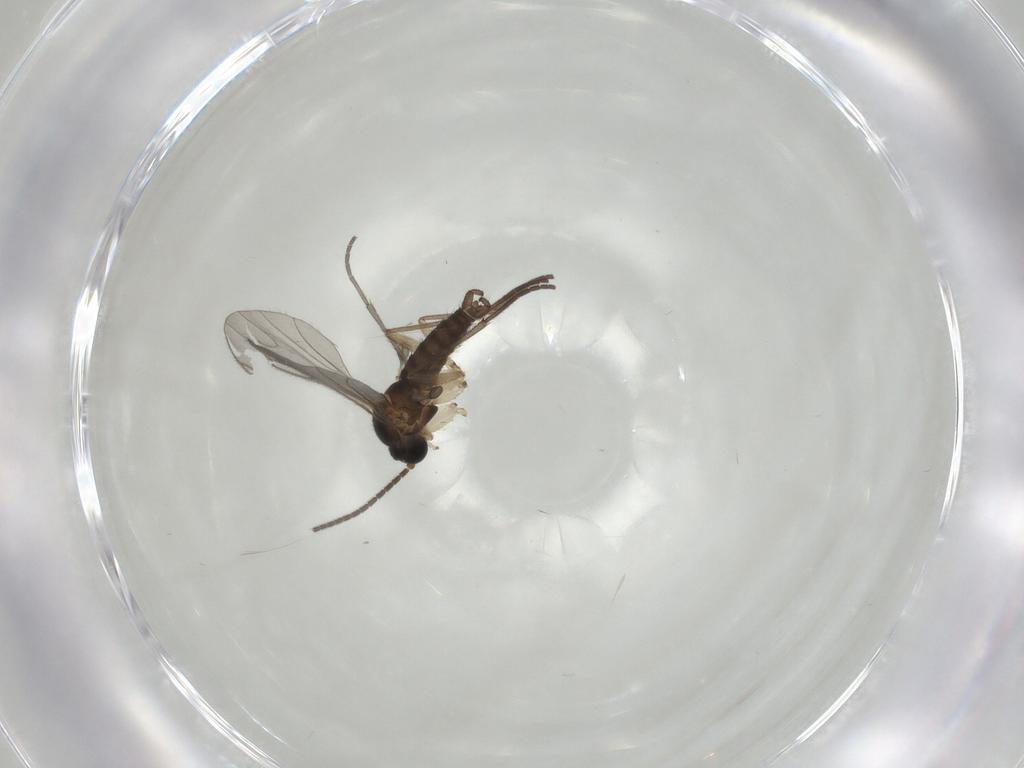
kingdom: Animalia
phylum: Arthropoda
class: Insecta
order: Diptera
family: Sciaridae
